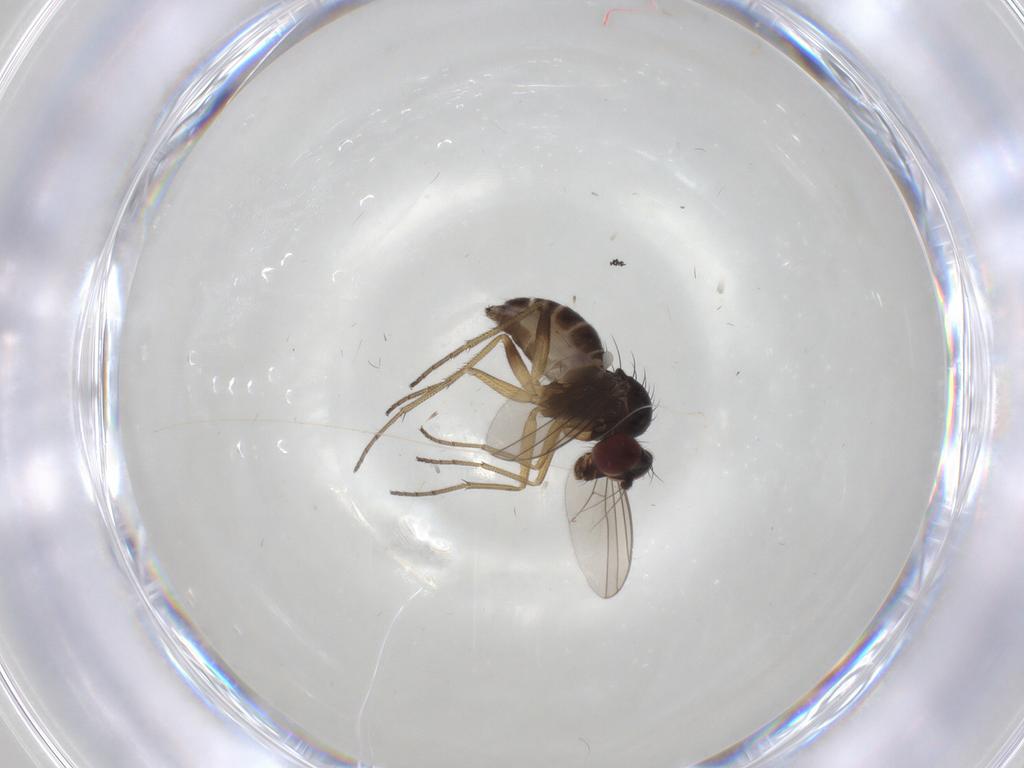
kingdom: Animalia
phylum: Arthropoda
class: Insecta
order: Diptera
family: Dolichopodidae
